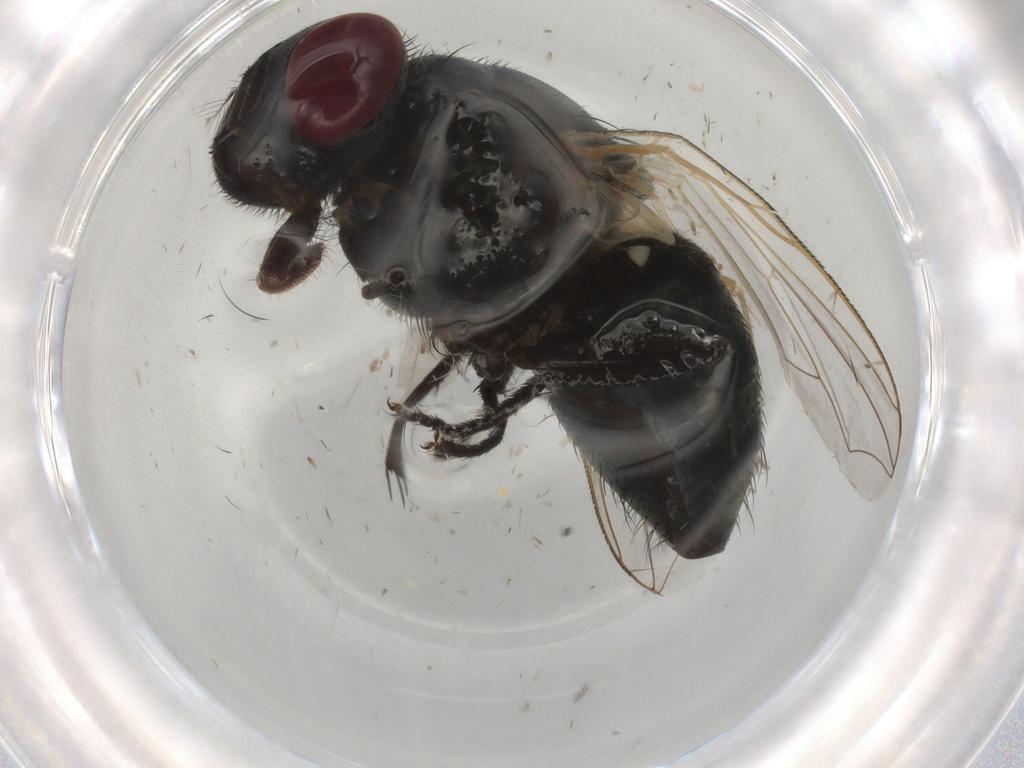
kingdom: Animalia
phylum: Arthropoda
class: Insecta
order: Diptera
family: Muscidae
